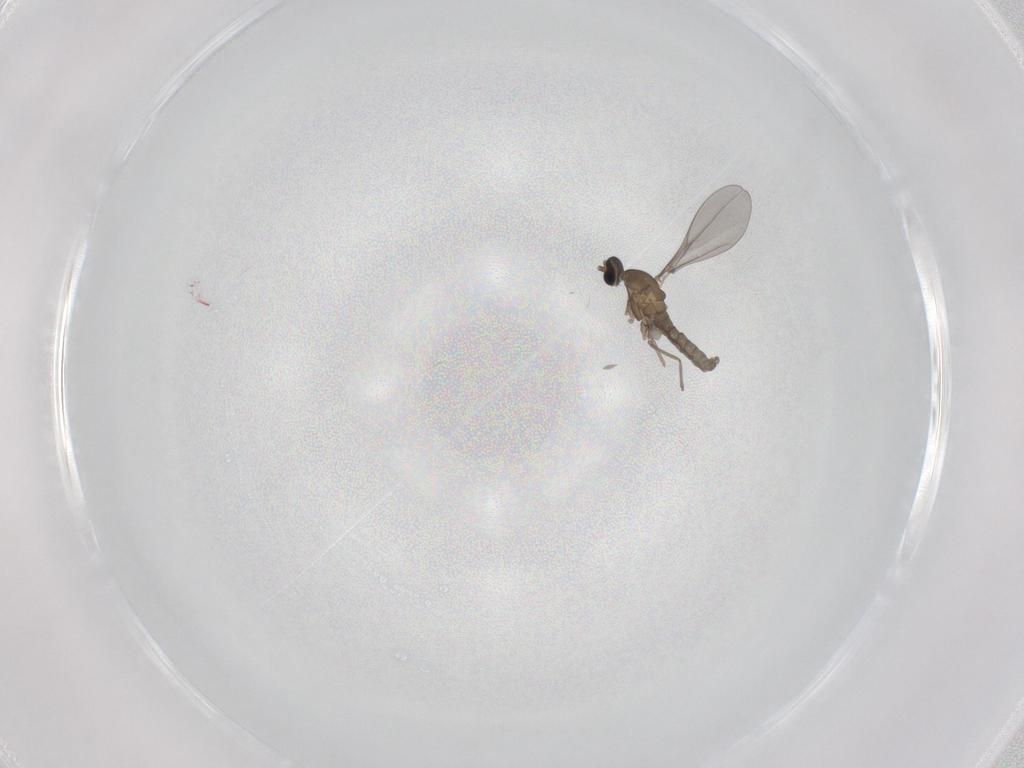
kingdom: Animalia
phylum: Arthropoda
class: Insecta
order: Diptera
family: Cecidomyiidae
